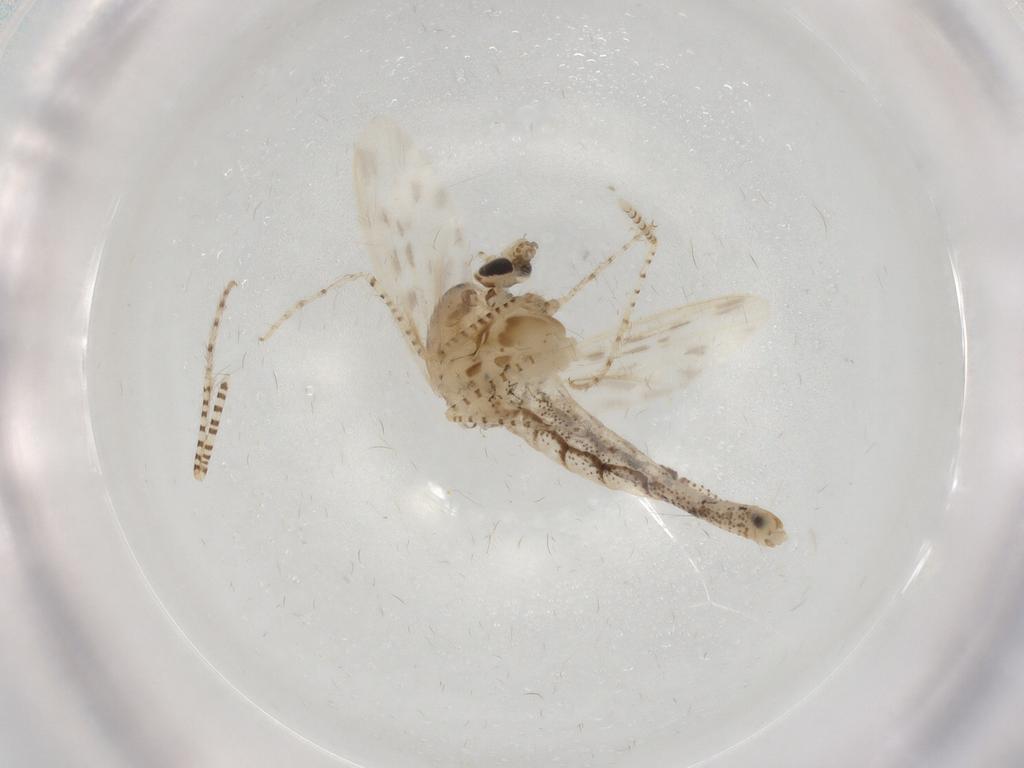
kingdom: Animalia
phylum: Arthropoda
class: Insecta
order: Diptera
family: Chaoboridae
